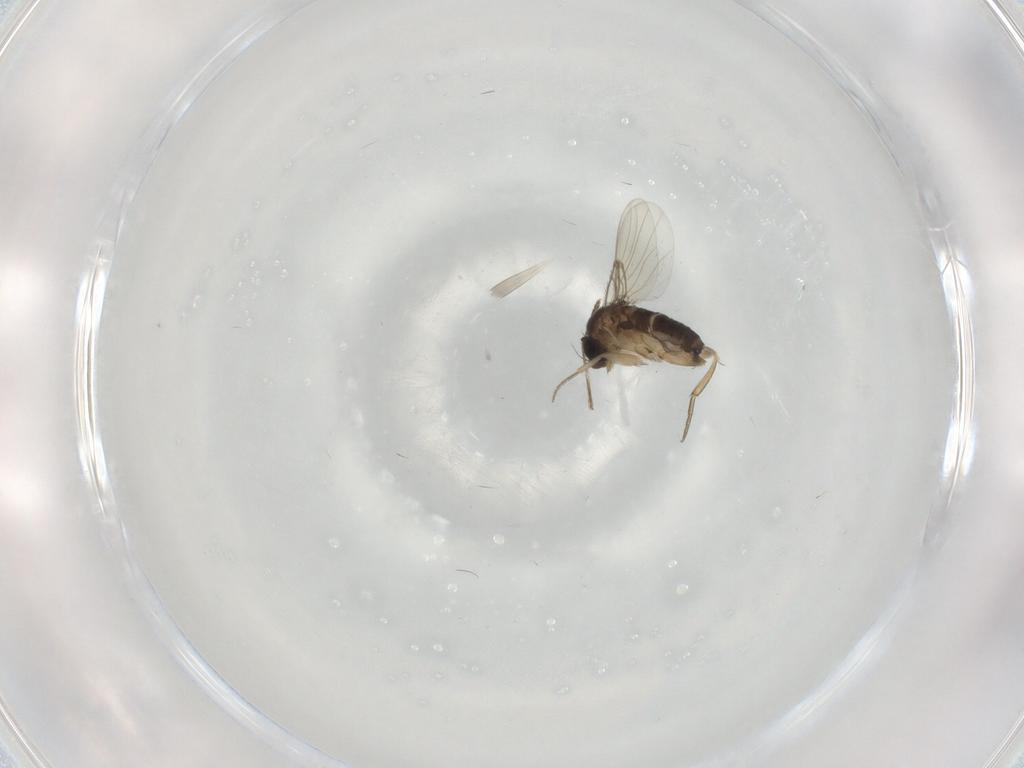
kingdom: Animalia
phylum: Arthropoda
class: Insecta
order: Diptera
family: Phoridae
